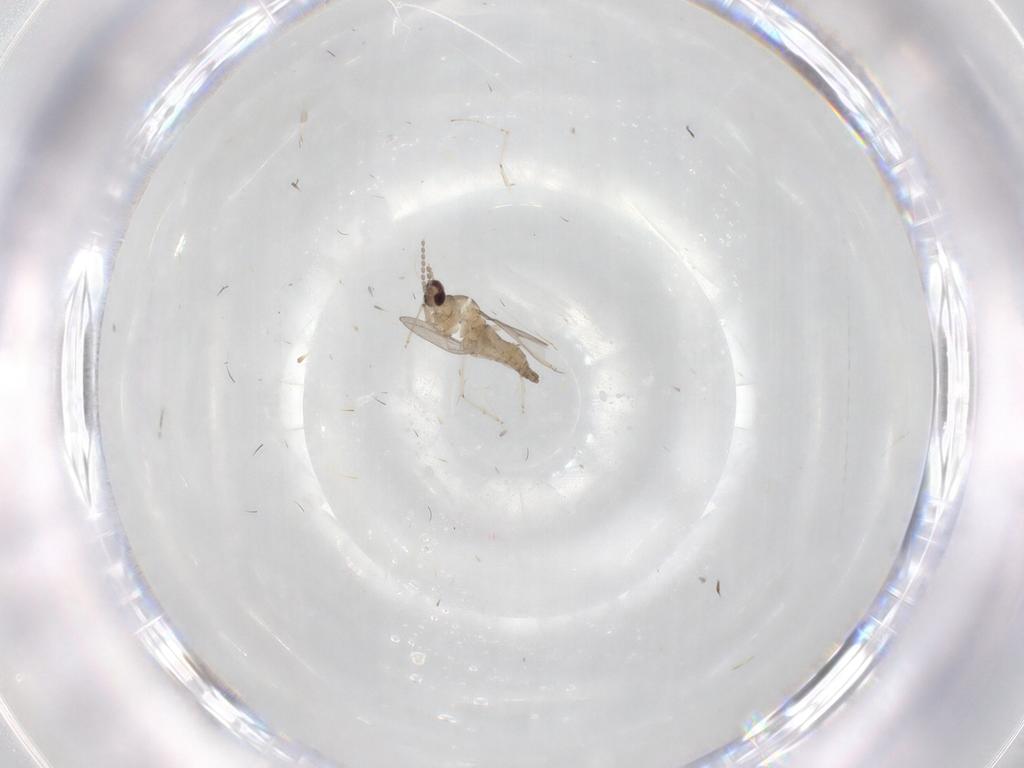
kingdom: Animalia
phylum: Arthropoda
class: Insecta
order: Diptera
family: Cecidomyiidae
